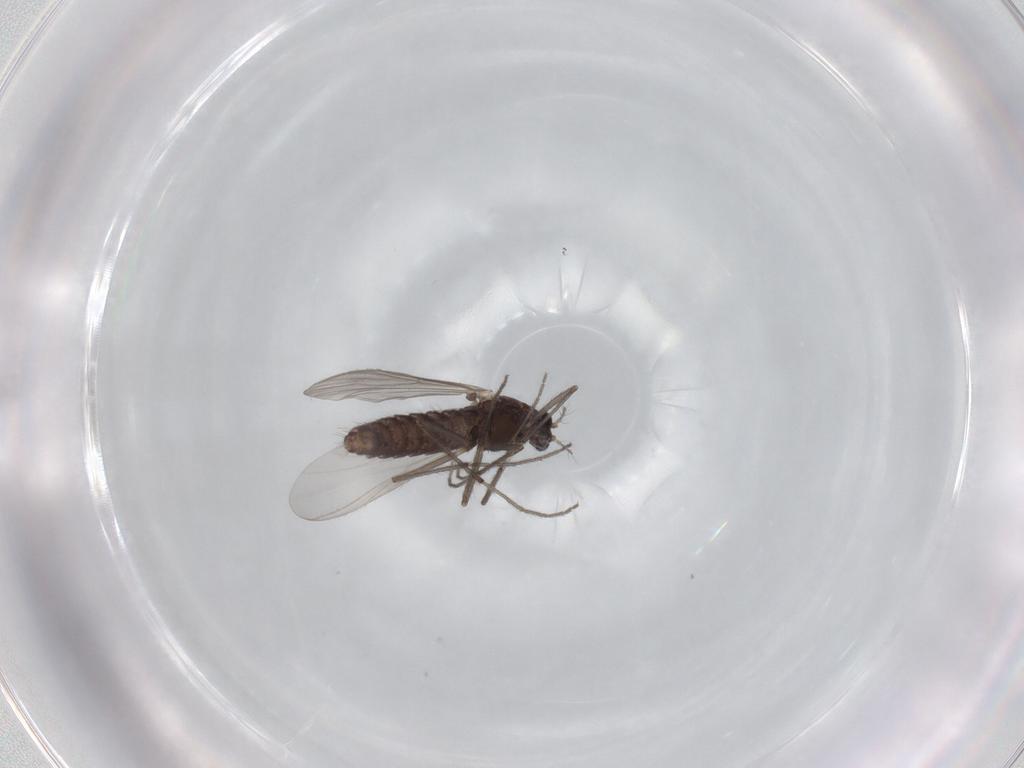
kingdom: Animalia
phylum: Arthropoda
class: Insecta
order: Diptera
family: Chironomidae
